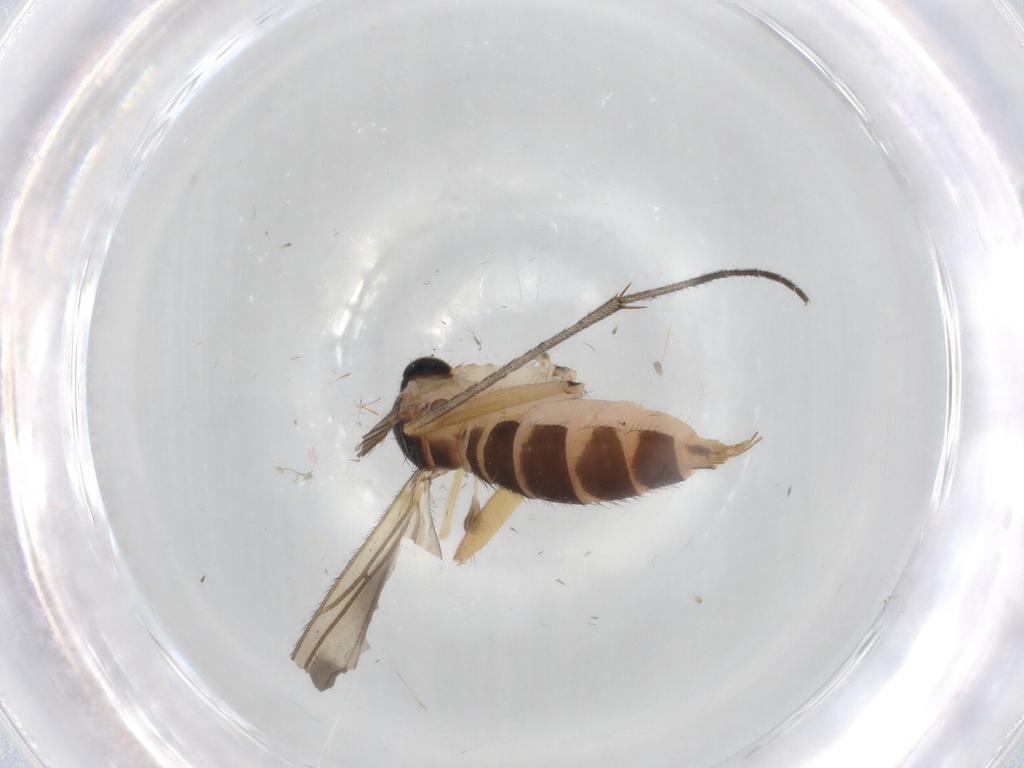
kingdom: Animalia
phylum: Arthropoda
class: Insecta
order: Diptera
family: Sciaridae
